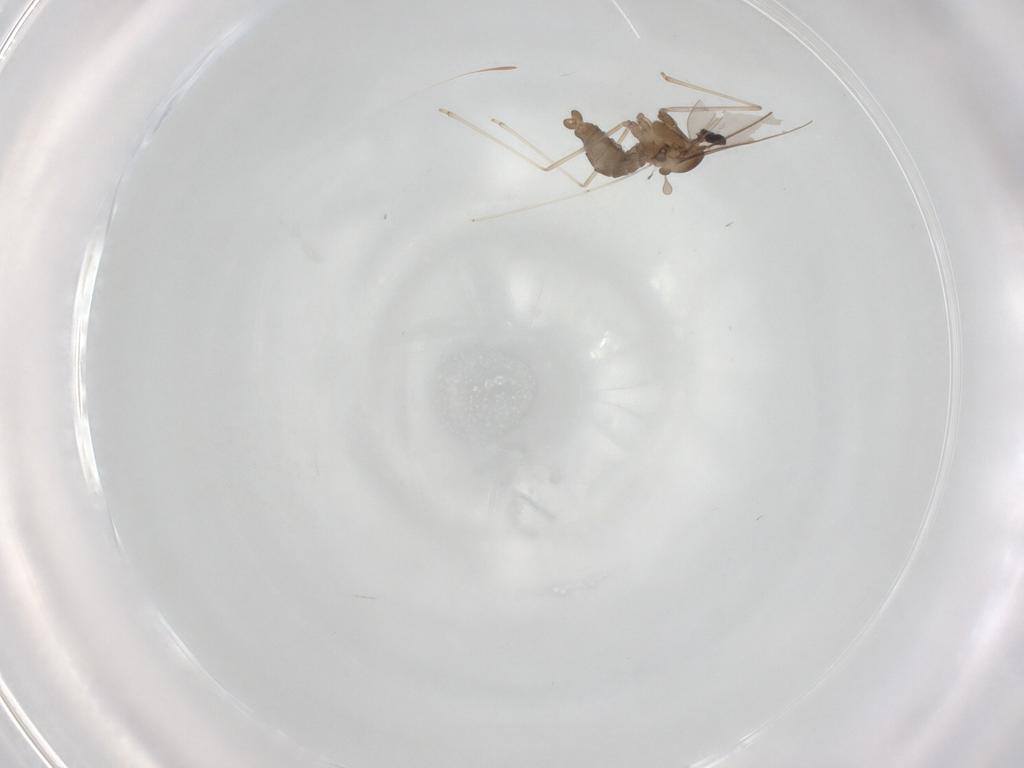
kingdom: Animalia
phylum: Arthropoda
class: Insecta
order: Diptera
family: Cecidomyiidae
